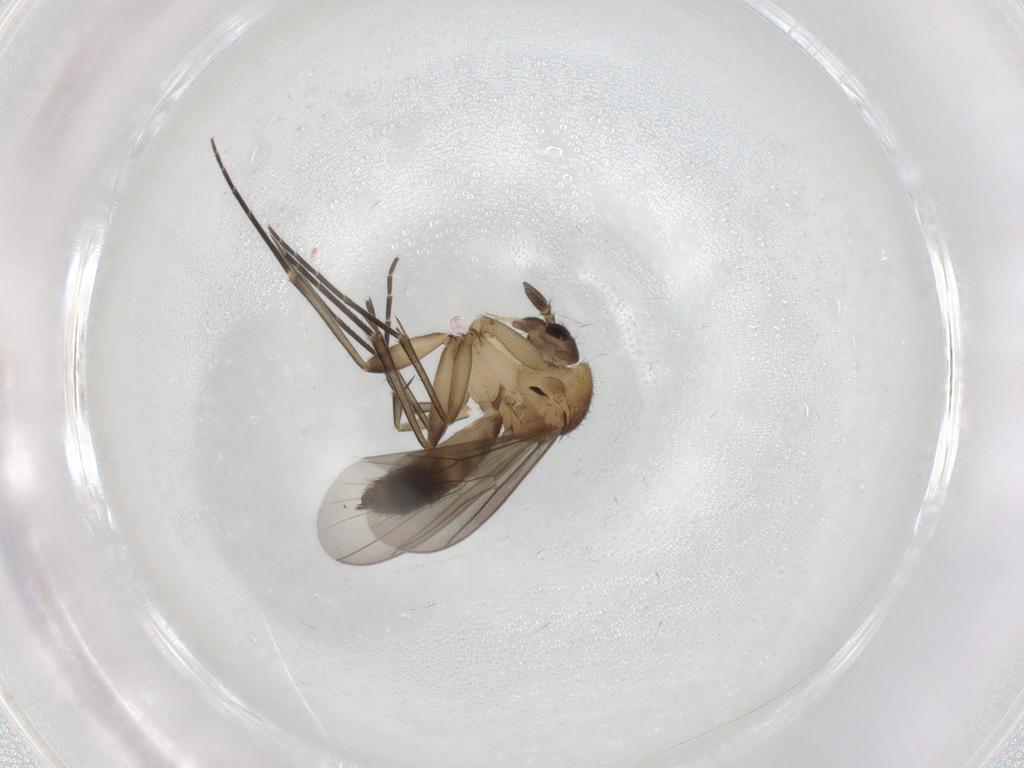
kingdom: Animalia
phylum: Arthropoda
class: Insecta
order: Diptera
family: Mycetophilidae
